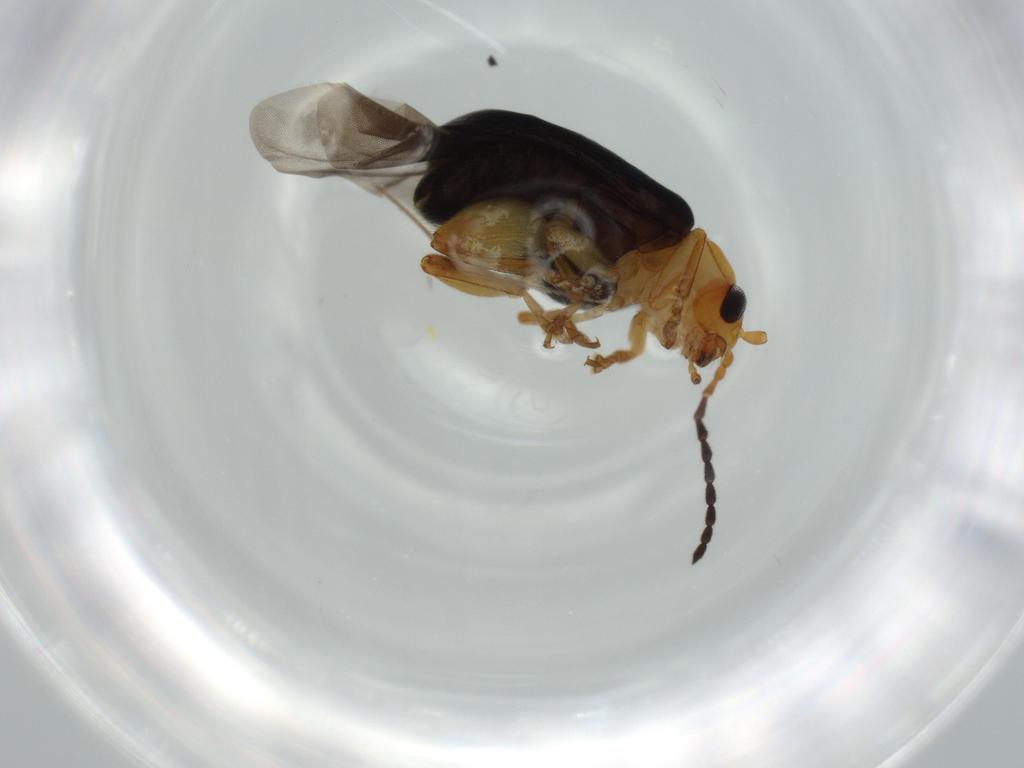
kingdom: Animalia
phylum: Arthropoda
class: Insecta
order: Coleoptera
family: Chrysomelidae
